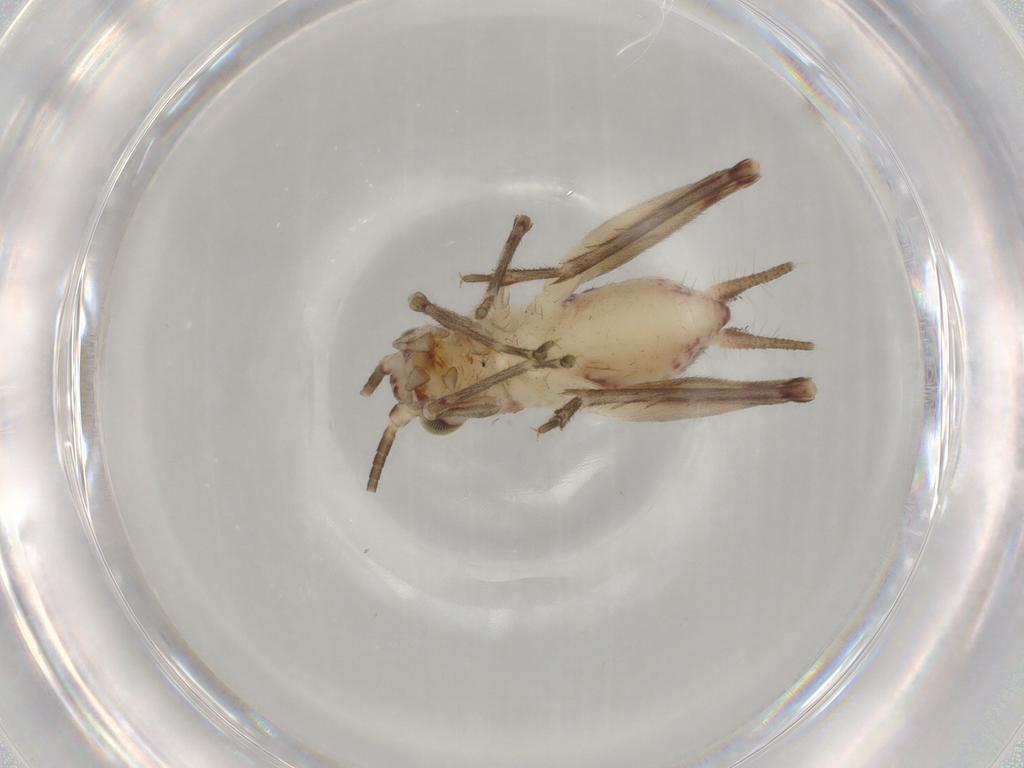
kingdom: Animalia
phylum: Arthropoda
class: Insecta
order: Orthoptera
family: Trigonidiidae
